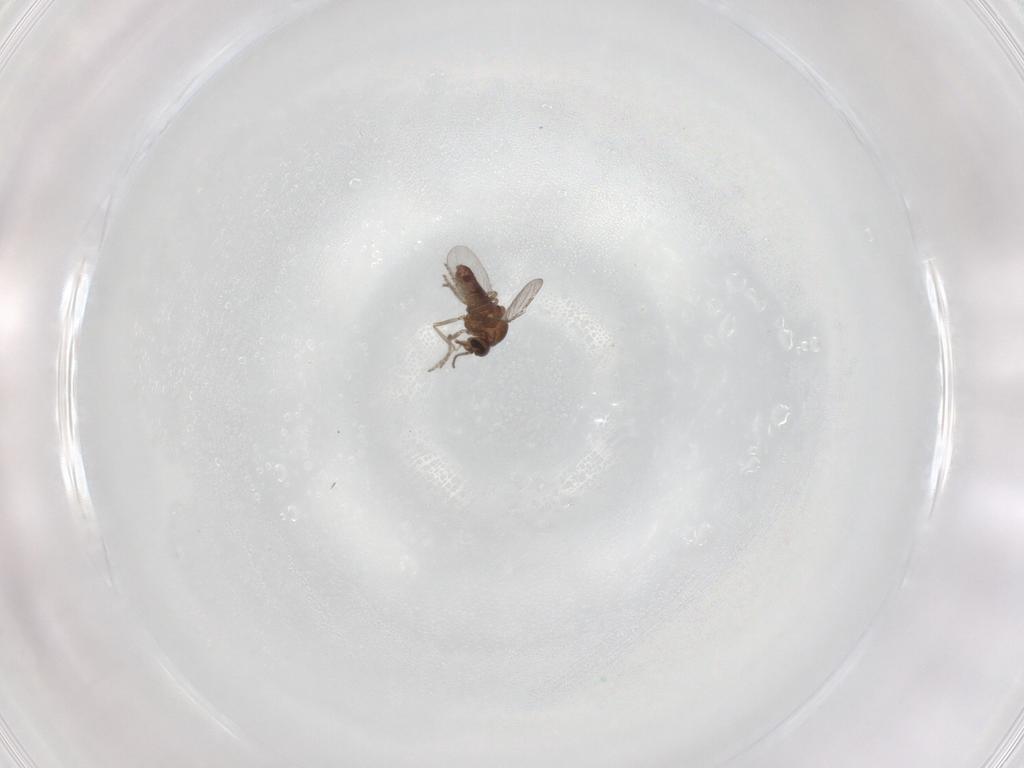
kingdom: Animalia
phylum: Arthropoda
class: Insecta
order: Diptera
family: Ceratopogonidae
